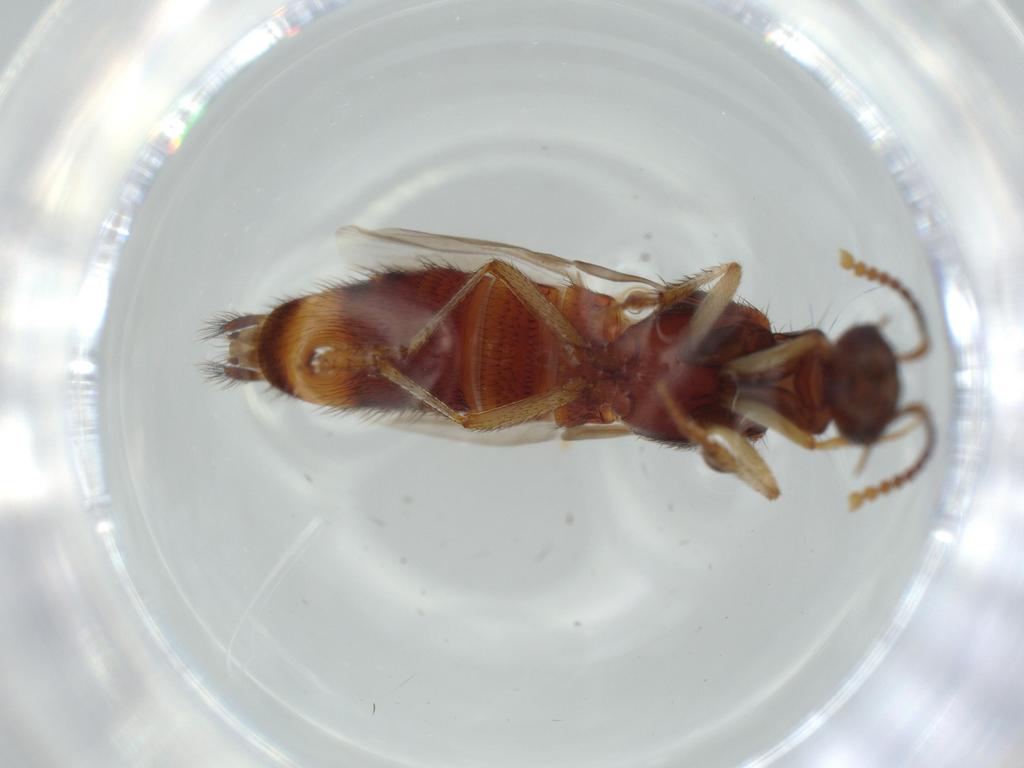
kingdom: Animalia
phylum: Arthropoda
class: Insecta
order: Coleoptera
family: Staphylinidae
